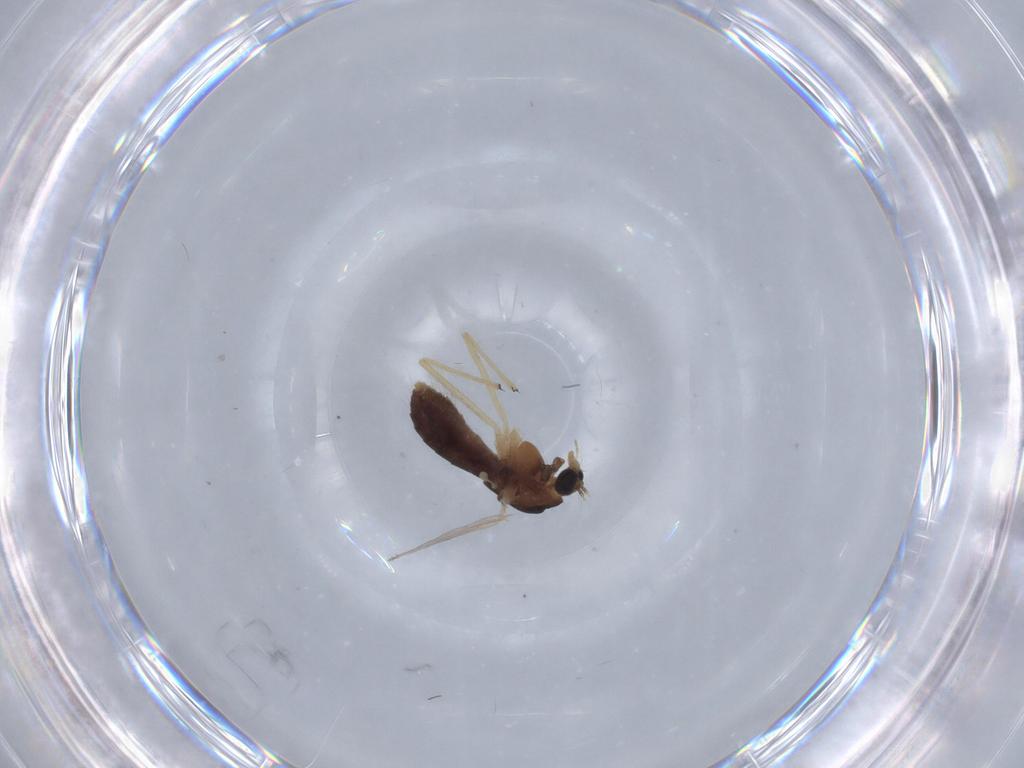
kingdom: Animalia
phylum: Arthropoda
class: Insecta
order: Diptera
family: Chironomidae
